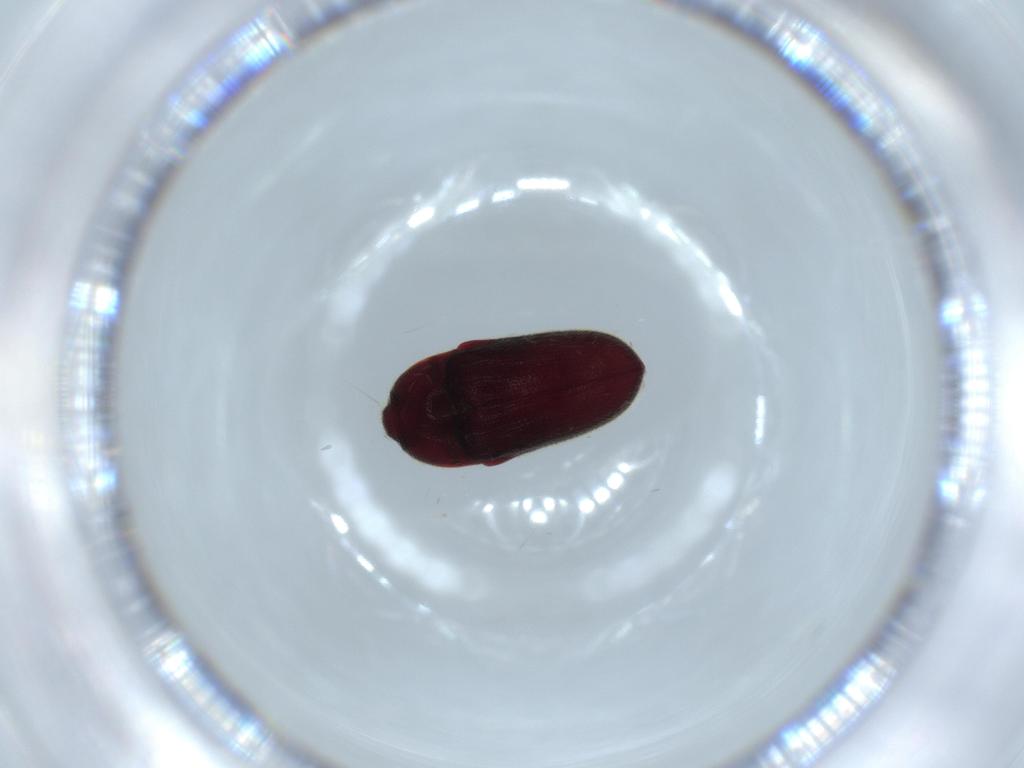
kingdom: Animalia
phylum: Arthropoda
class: Insecta
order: Coleoptera
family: Throscidae
